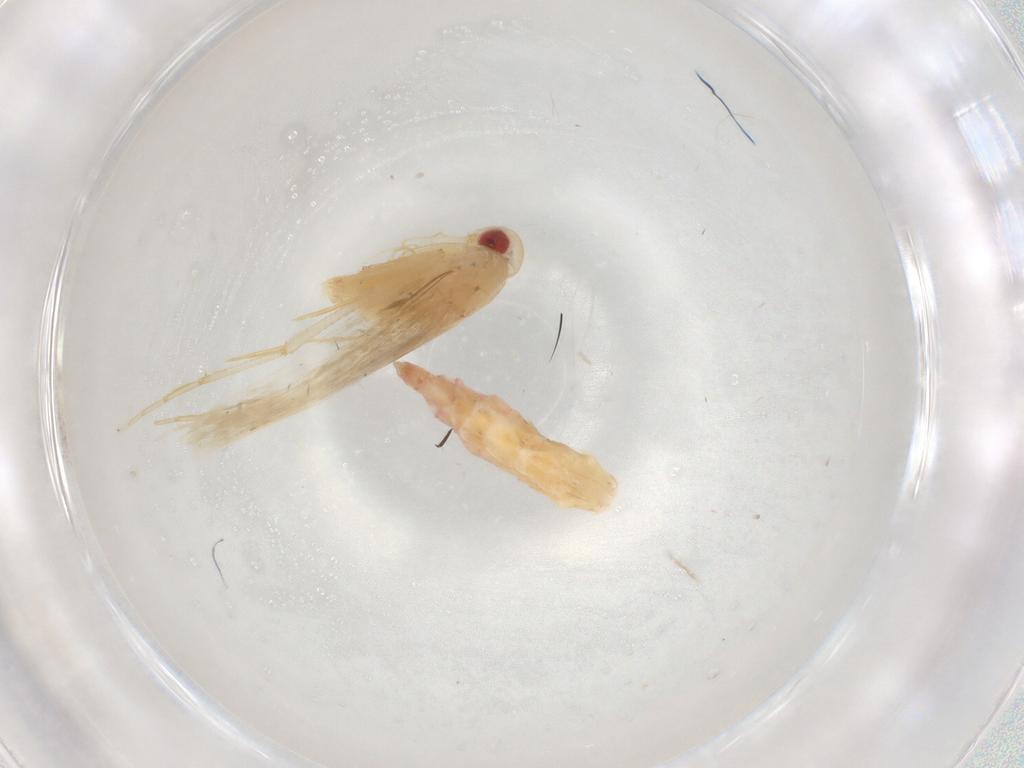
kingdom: Animalia
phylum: Arthropoda
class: Insecta
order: Lepidoptera
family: Cosmopterigidae
